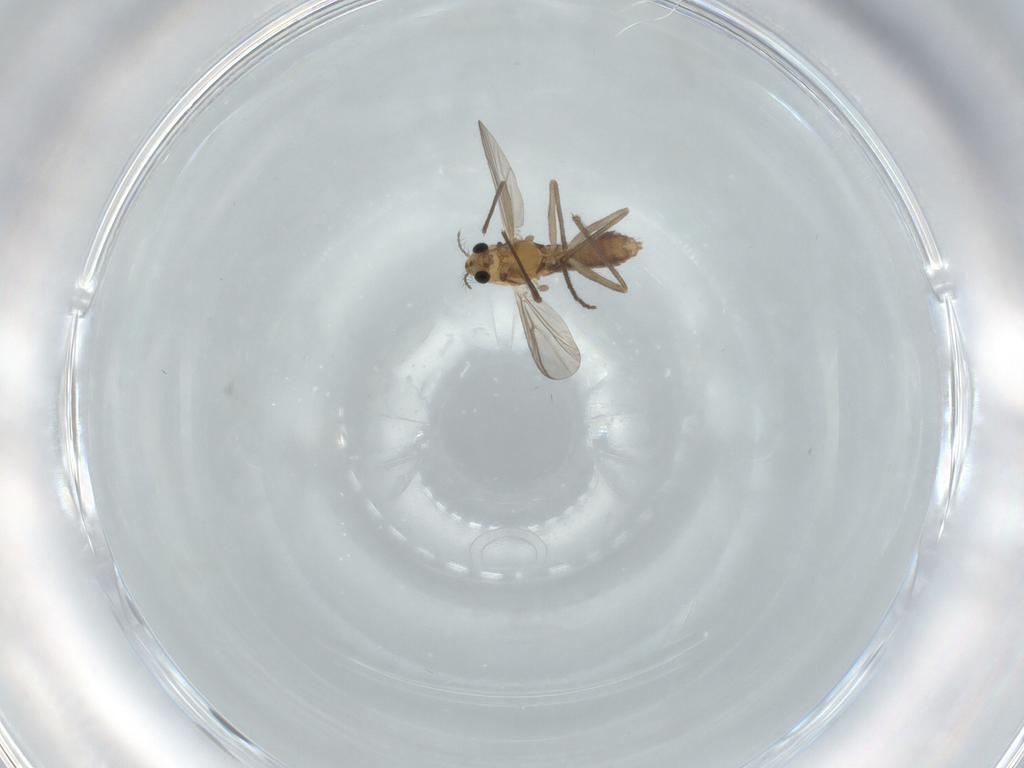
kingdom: Animalia
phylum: Arthropoda
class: Insecta
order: Diptera
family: Chironomidae
